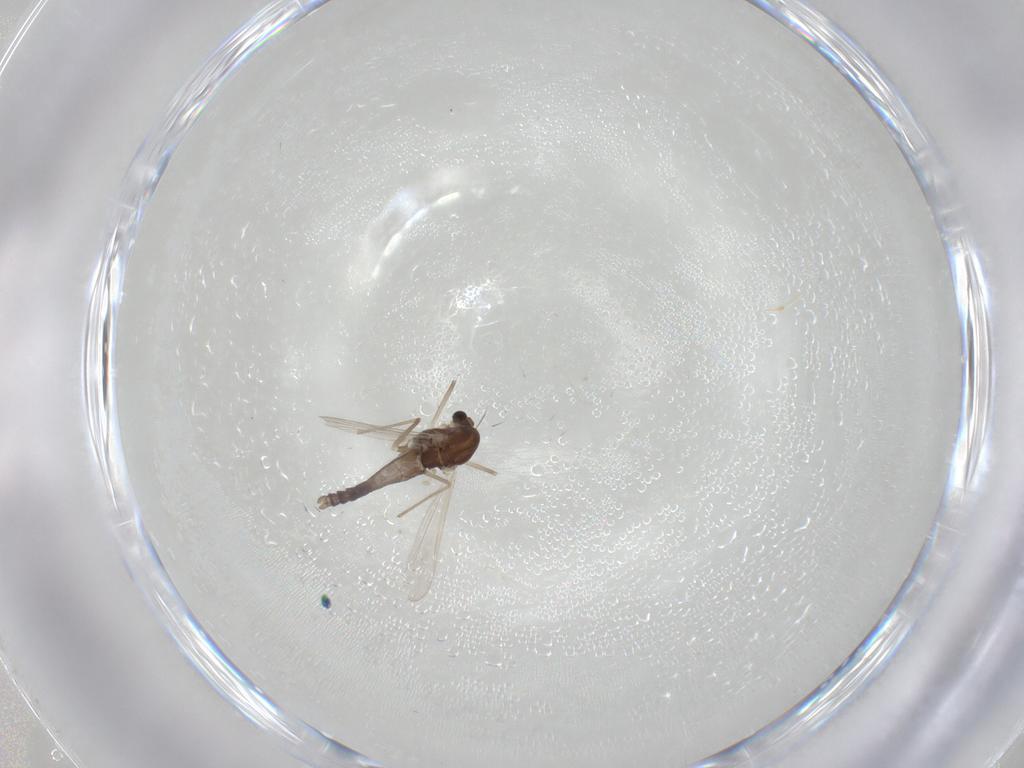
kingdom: Animalia
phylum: Arthropoda
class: Insecta
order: Diptera
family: Chironomidae
